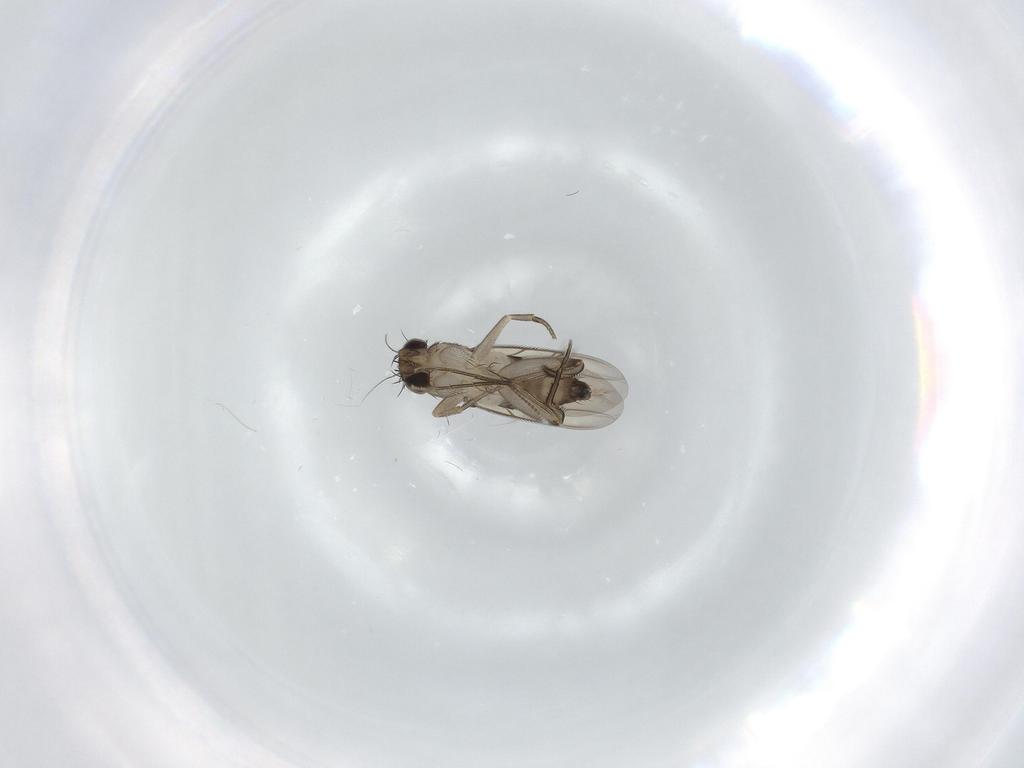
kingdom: Animalia
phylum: Arthropoda
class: Insecta
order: Diptera
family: Phoridae
